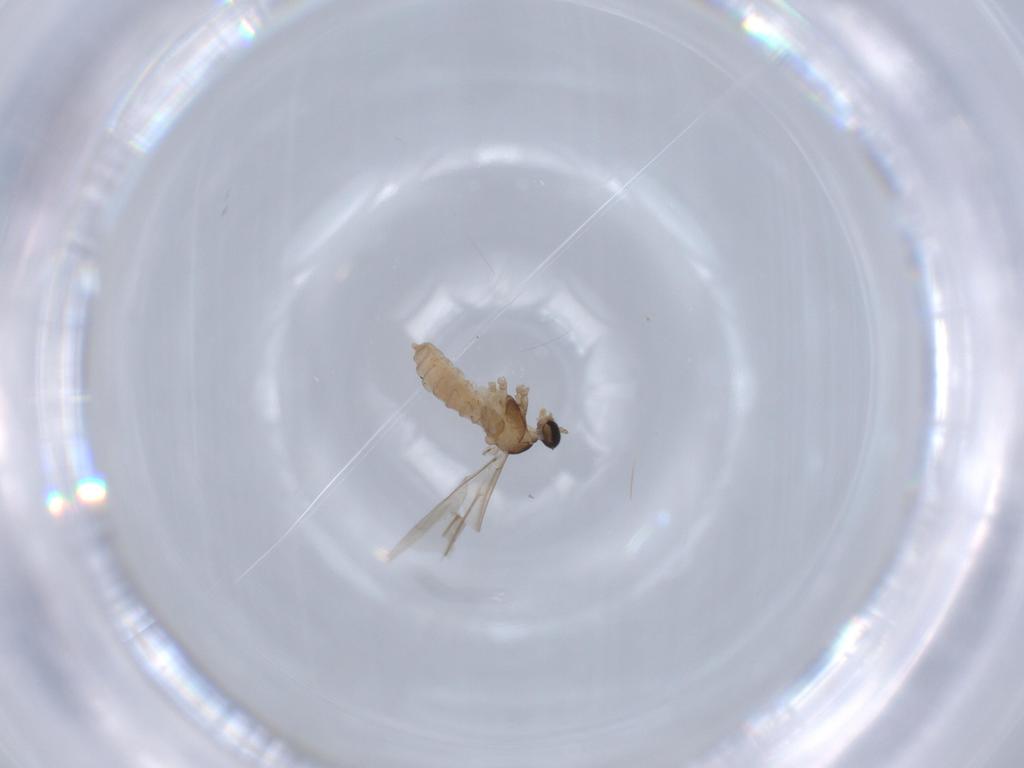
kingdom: Animalia
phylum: Arthropoda
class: Insecta
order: Diptera
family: Cecidomyiidae
